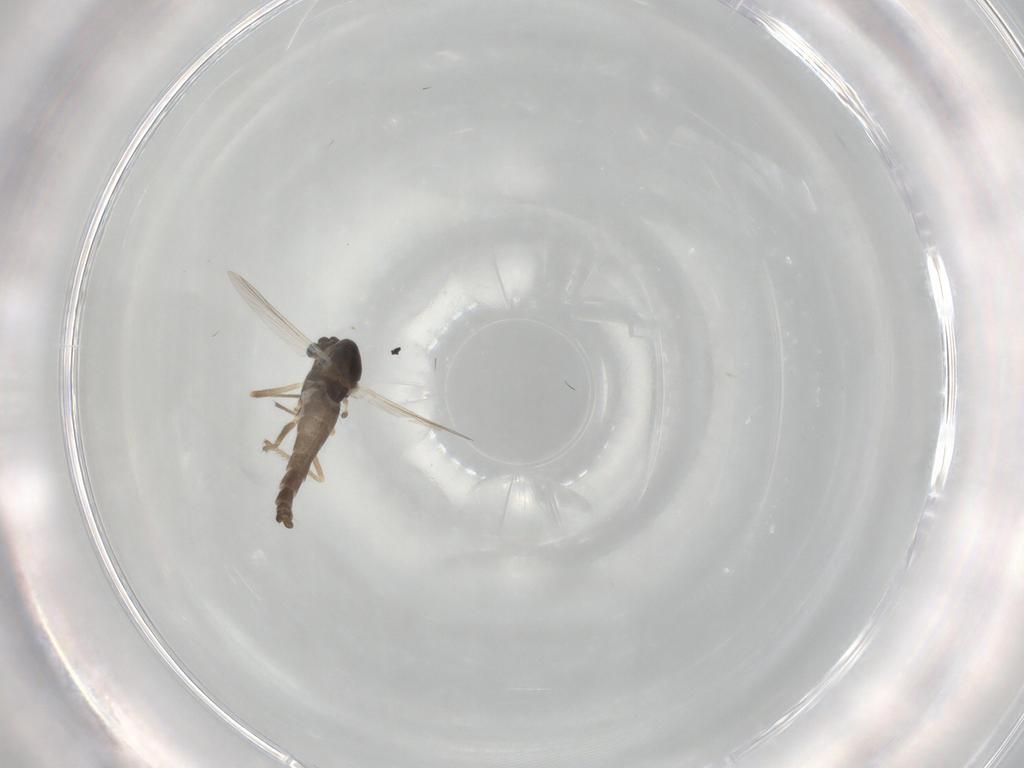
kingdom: Animalia
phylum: Arthropoda
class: Insecta
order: Diptera
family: Chironomidae
